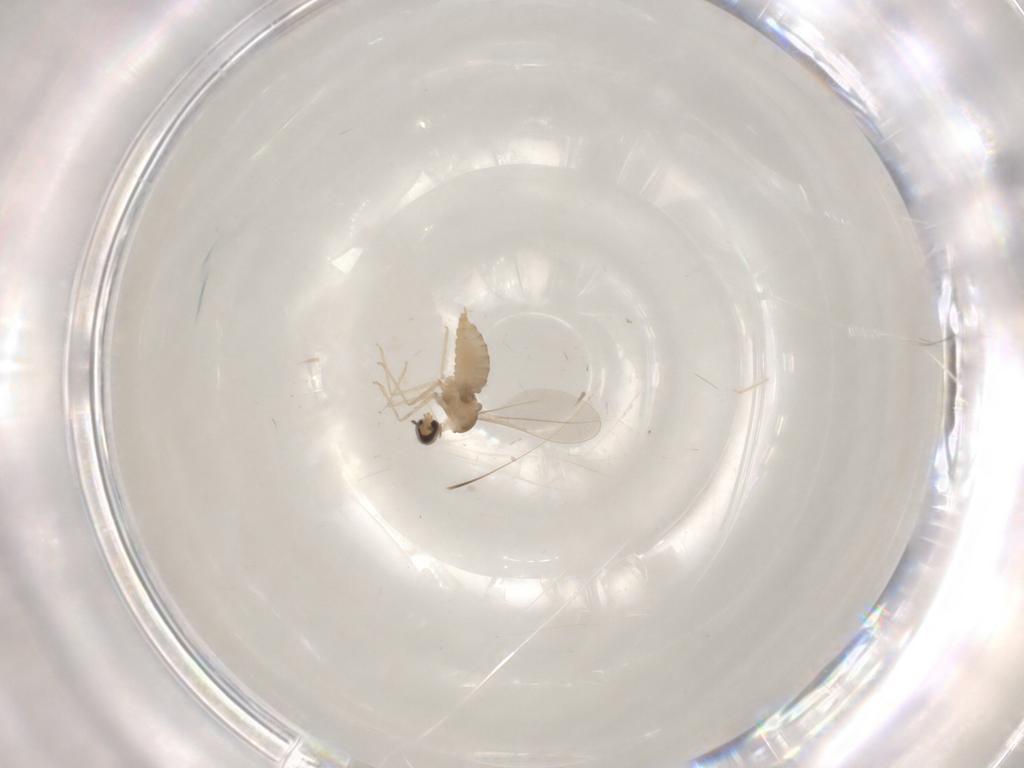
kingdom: Animalia
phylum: Arthropoda
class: Insecta
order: Diptera
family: Cecidomyiidae
